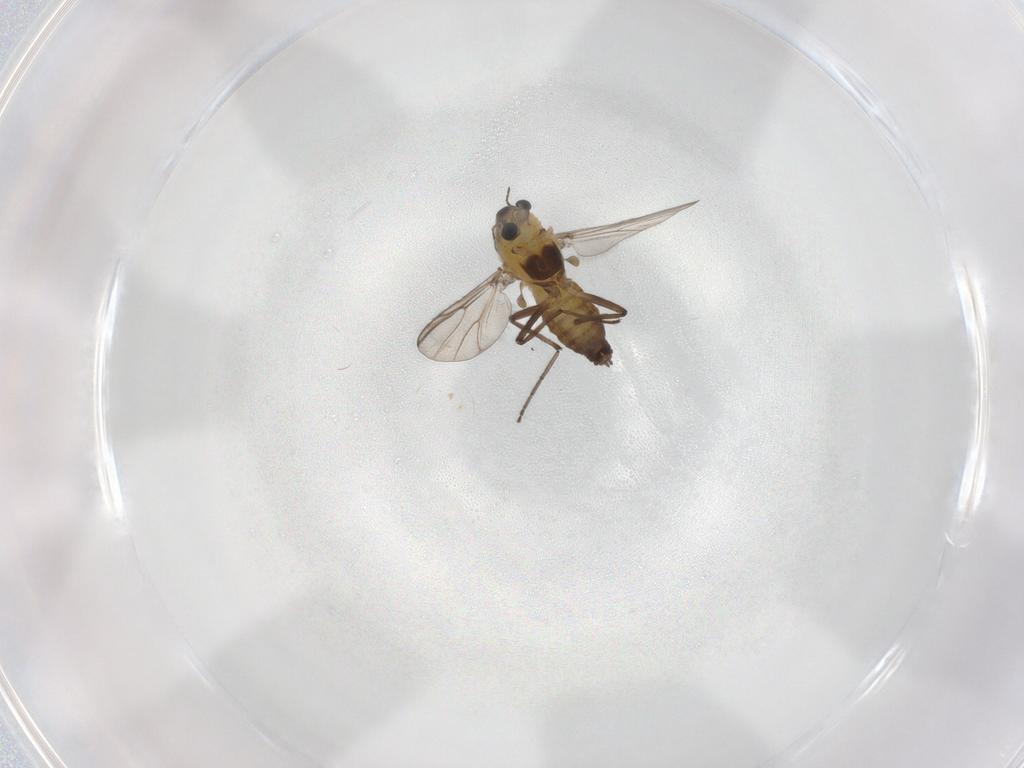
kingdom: Animalia
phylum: Arthropoda
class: Insecta
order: Diptera
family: Chironomidae
